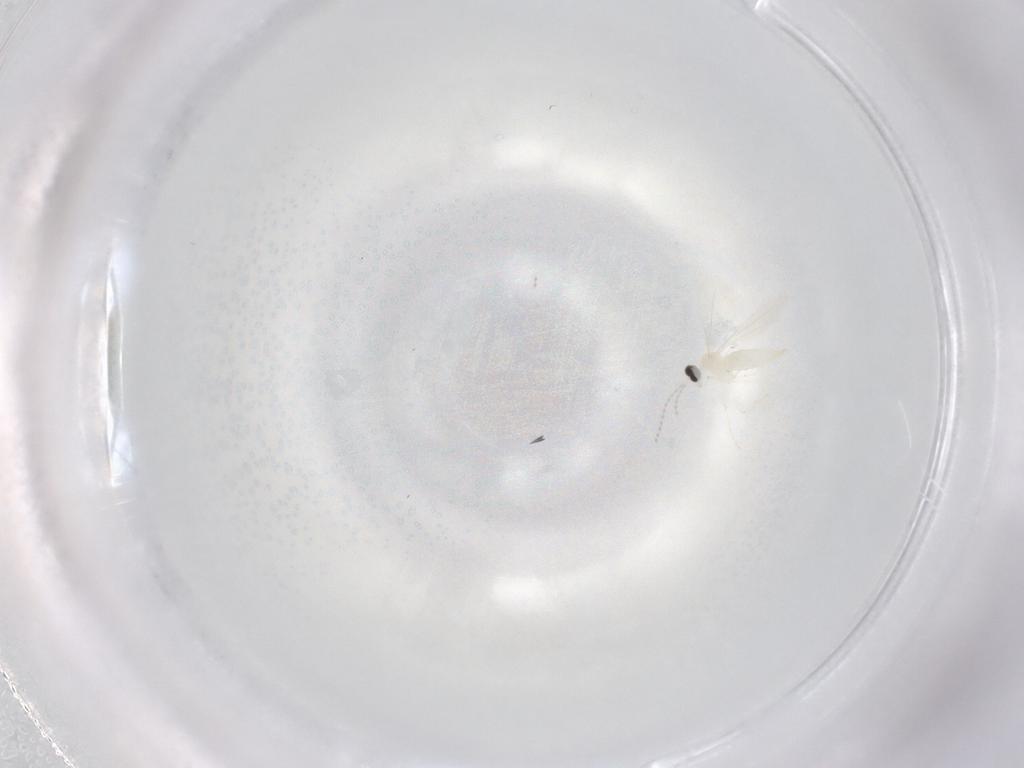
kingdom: Animalia
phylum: Arthropoda
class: Insecta
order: Diptera
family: Cecidomyiidae
